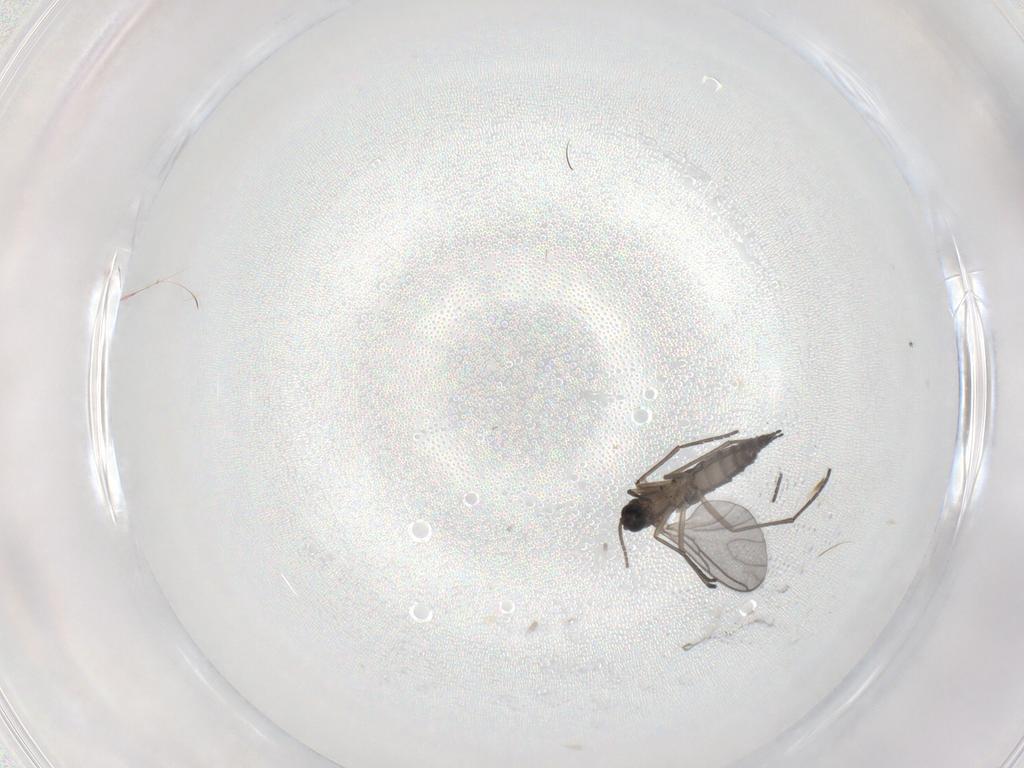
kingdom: Animalia
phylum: Arthropoda
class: Insecta
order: Diptera
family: Sciaridae
